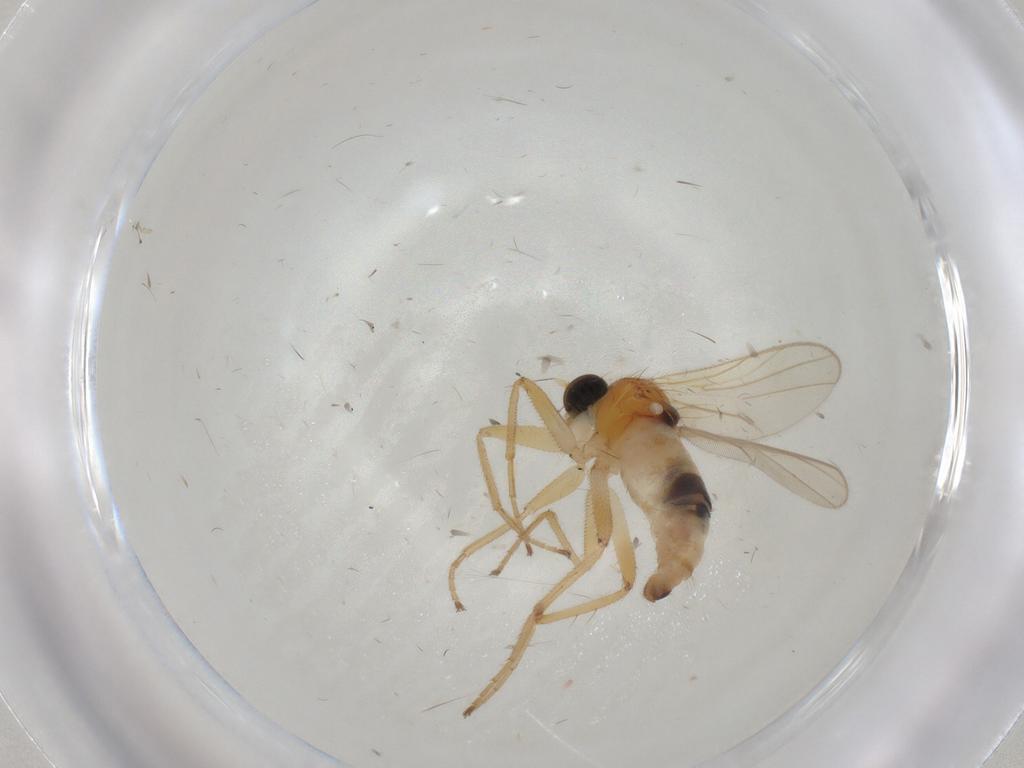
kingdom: Animalia
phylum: Arthropoda
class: Insecta
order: Diptera
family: Hybotidae
